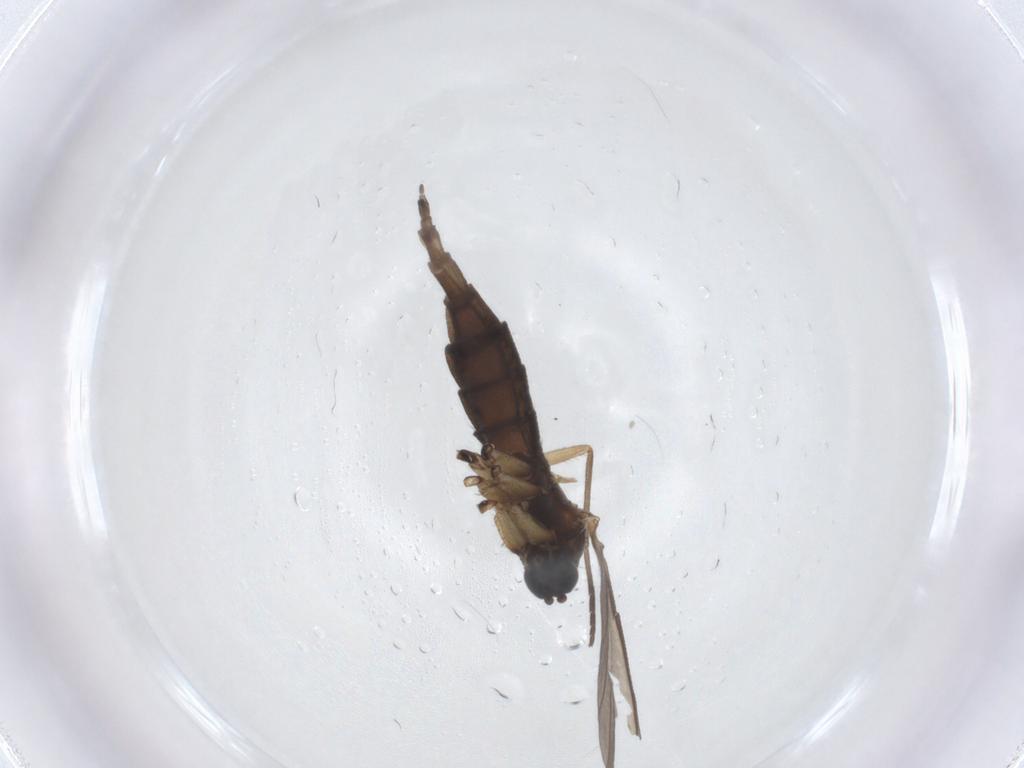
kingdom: Animalia
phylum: Arthropoda
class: Insecta
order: Diptera
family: Sciaridae
